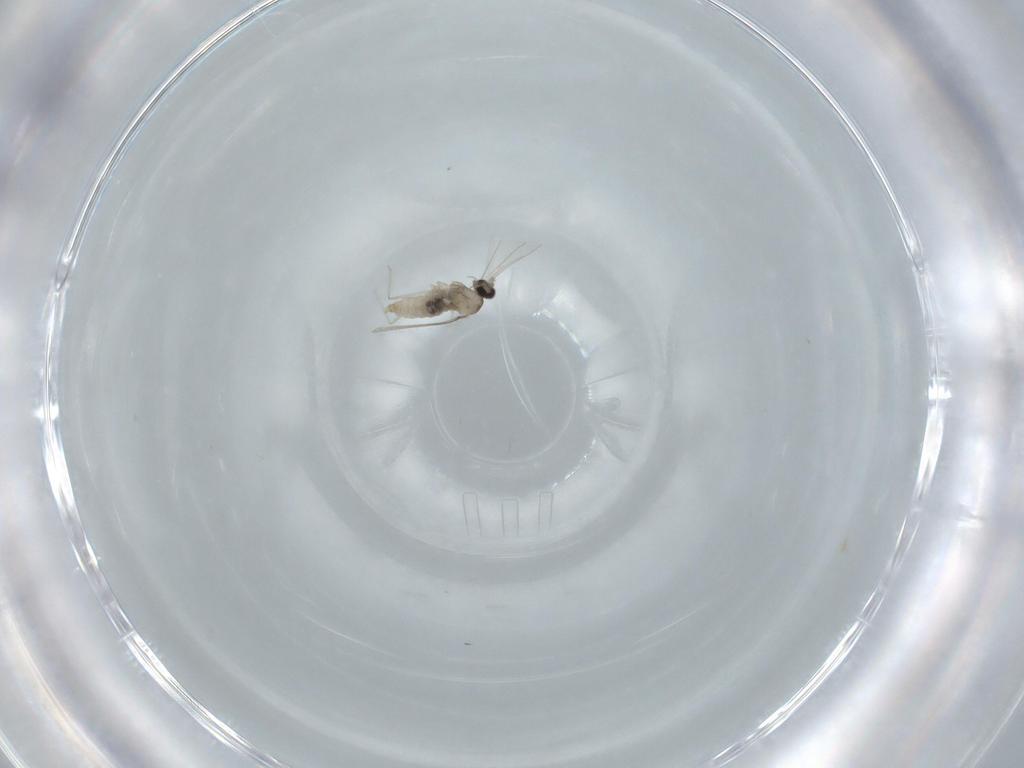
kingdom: Animalia
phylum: Arthropoda
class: Insecta
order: Diptera
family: Cecidomyiidae
